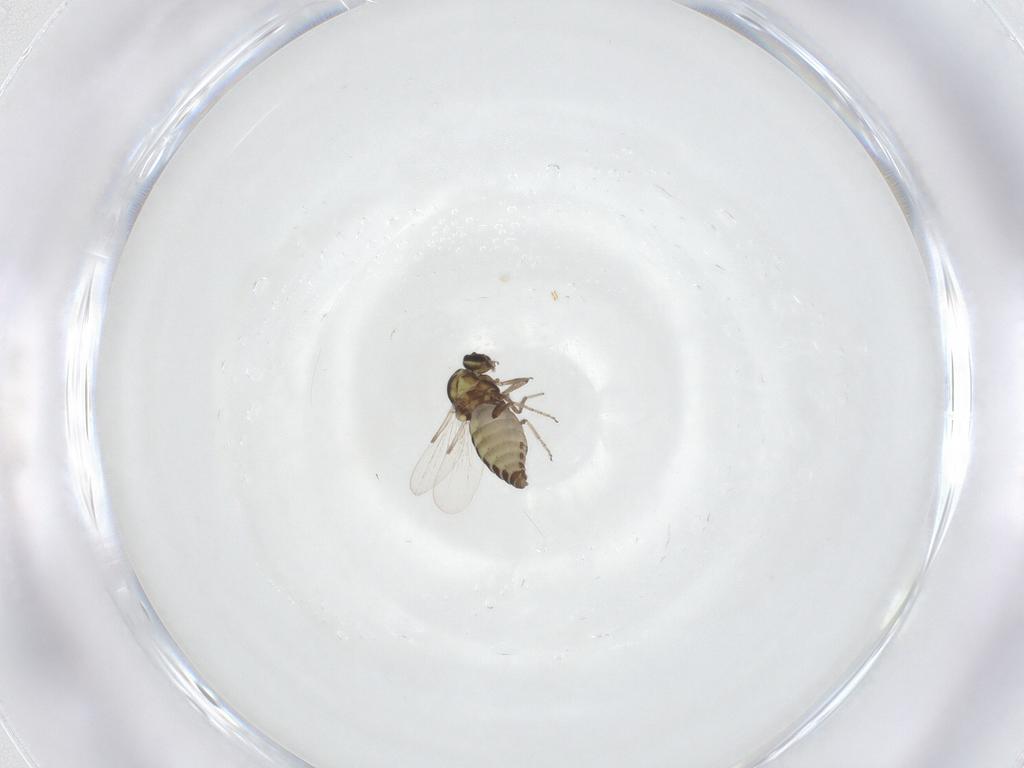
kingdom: Animalia
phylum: Arthropoda
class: Insecta
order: Diptera
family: Ceratopogonidae
